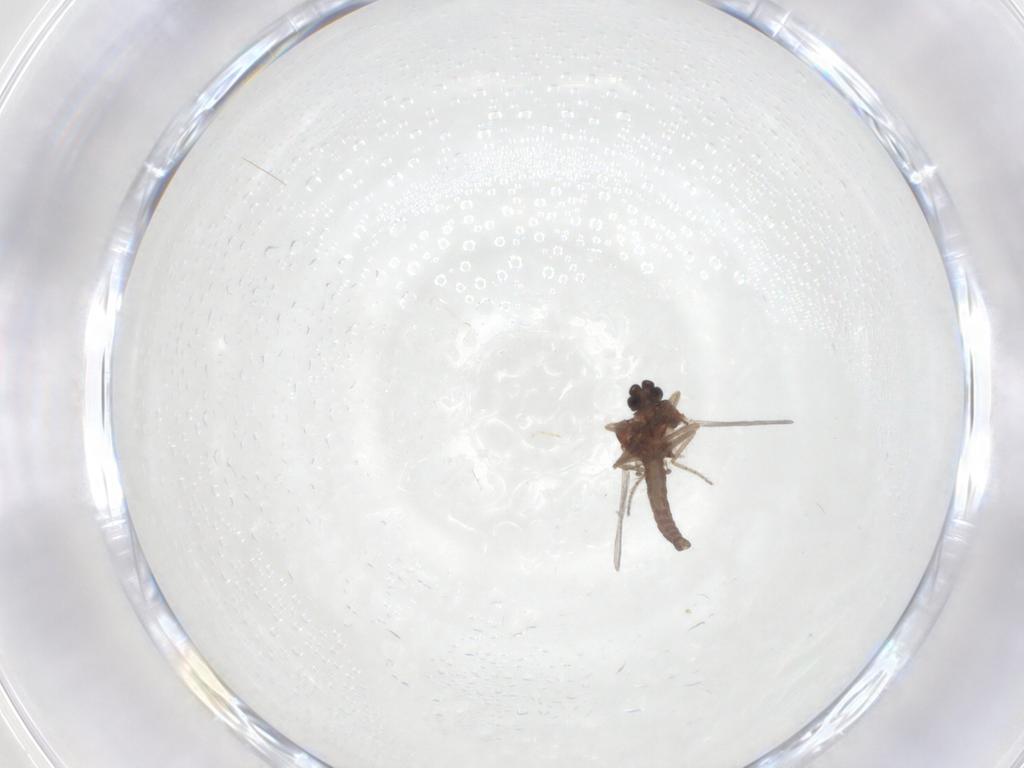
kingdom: Animalia
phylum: Arthropoda
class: Insecta
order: Diptera
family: Ceratopogonidae
